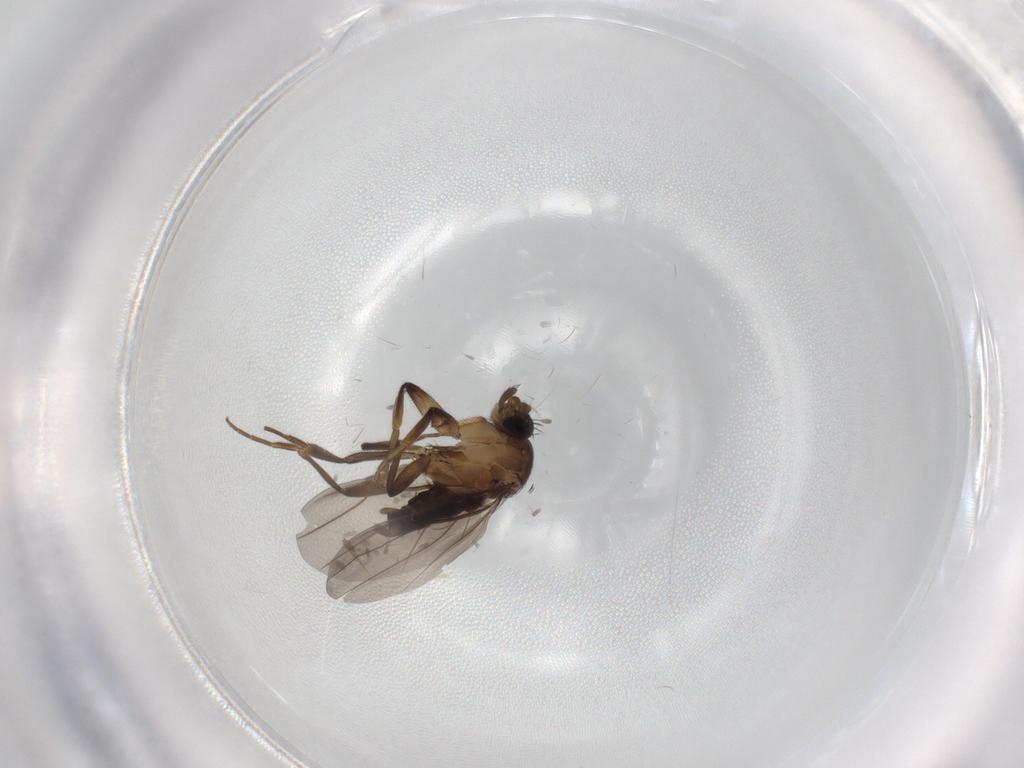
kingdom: Animalia
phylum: Arthropoda
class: Insecta
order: Diptera
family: Phoridae
